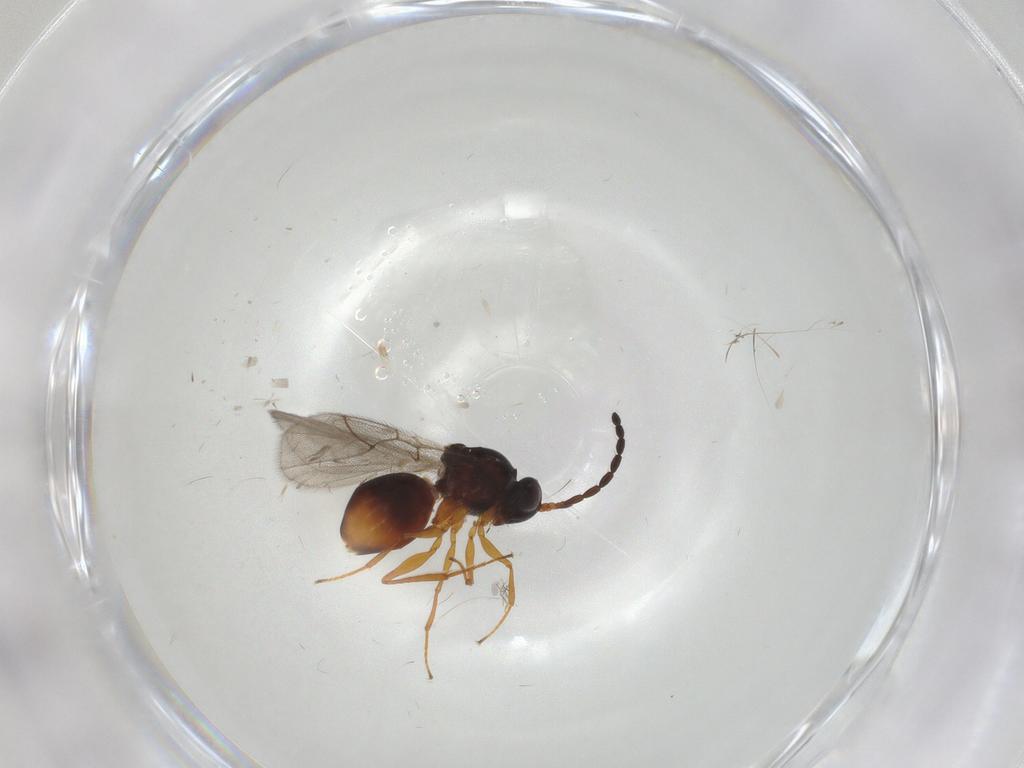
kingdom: Animalia
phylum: Arthropoda
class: Insecta
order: Hymenoptera
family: Figitidae
